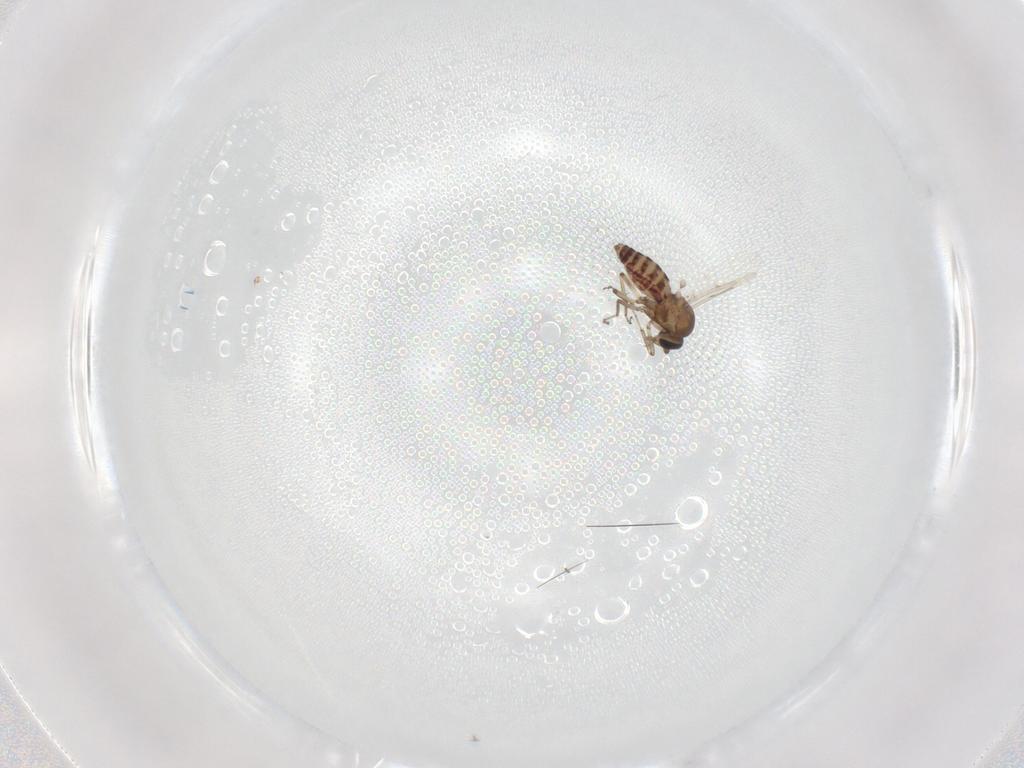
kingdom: Animalia
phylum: Arthropoda
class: Insecta
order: Diptera
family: Ceratopogonidae
